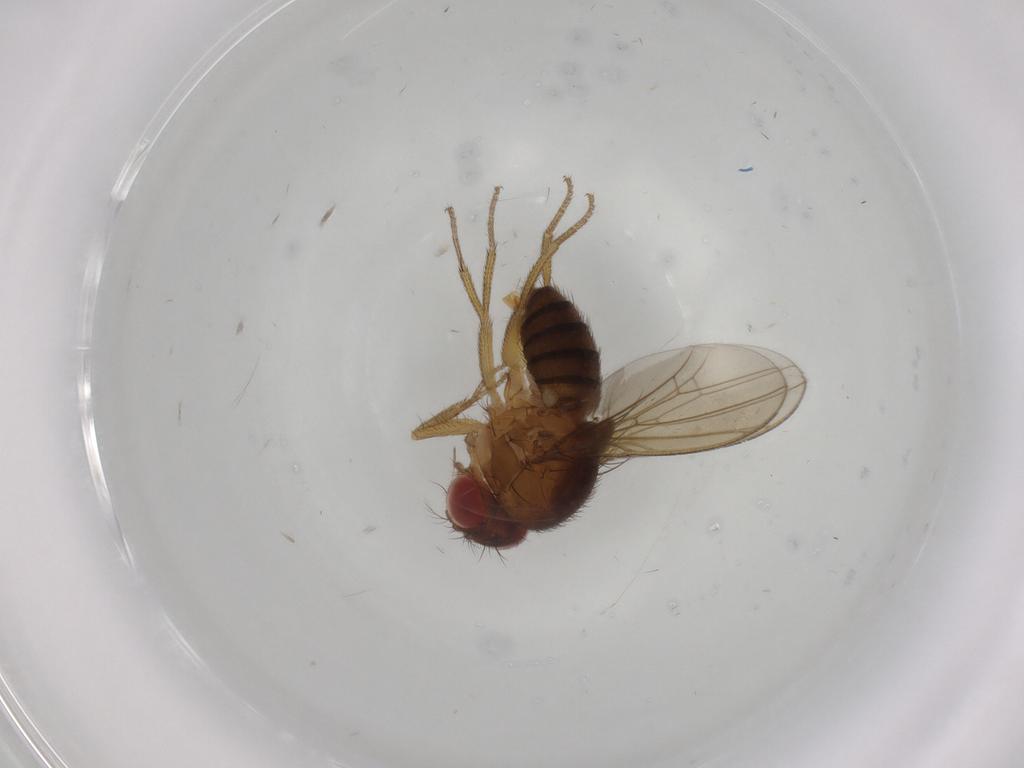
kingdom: Animalia
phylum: Arthropoda
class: Insecta
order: Diptera
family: Drosophilidae
